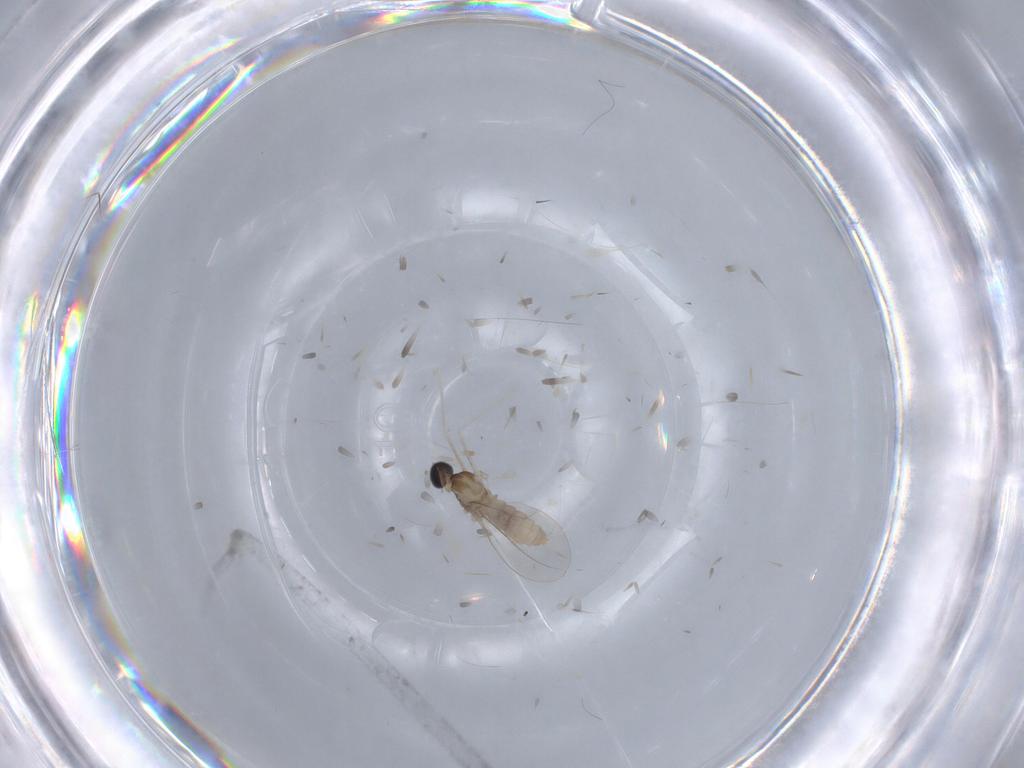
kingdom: Animalia
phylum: Arthropoda
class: Insecta
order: Diptera
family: Cecidomyiidae
